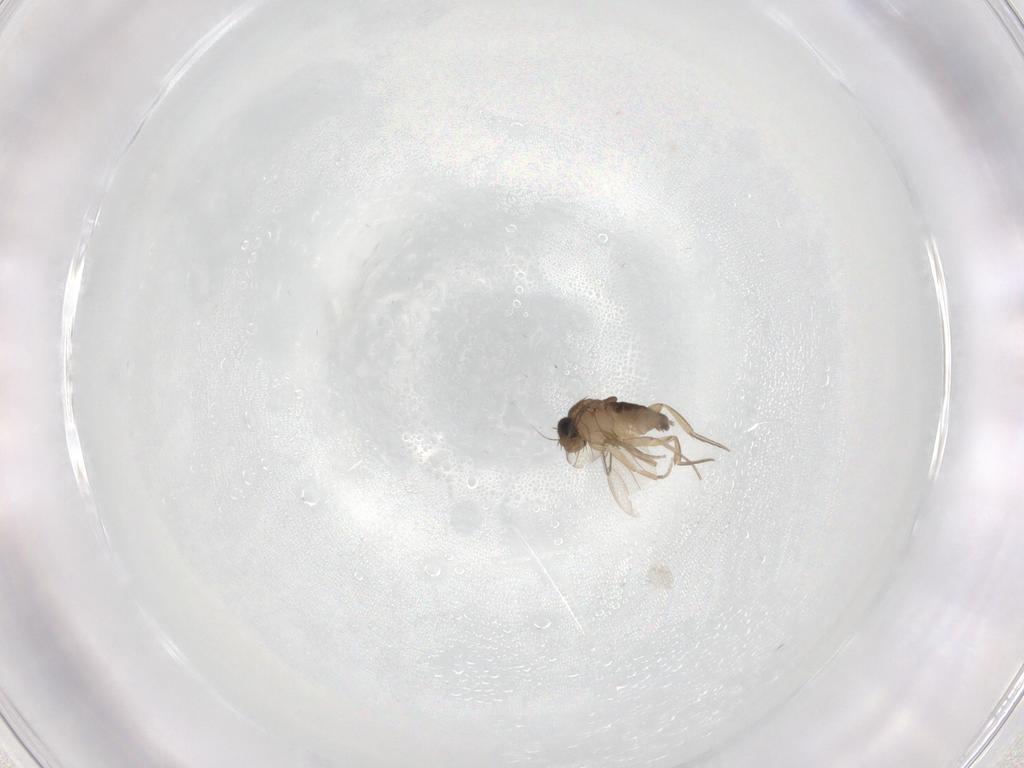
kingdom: Animalia
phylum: Arthropoda
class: Insecta
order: Diptera
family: Phoridae
